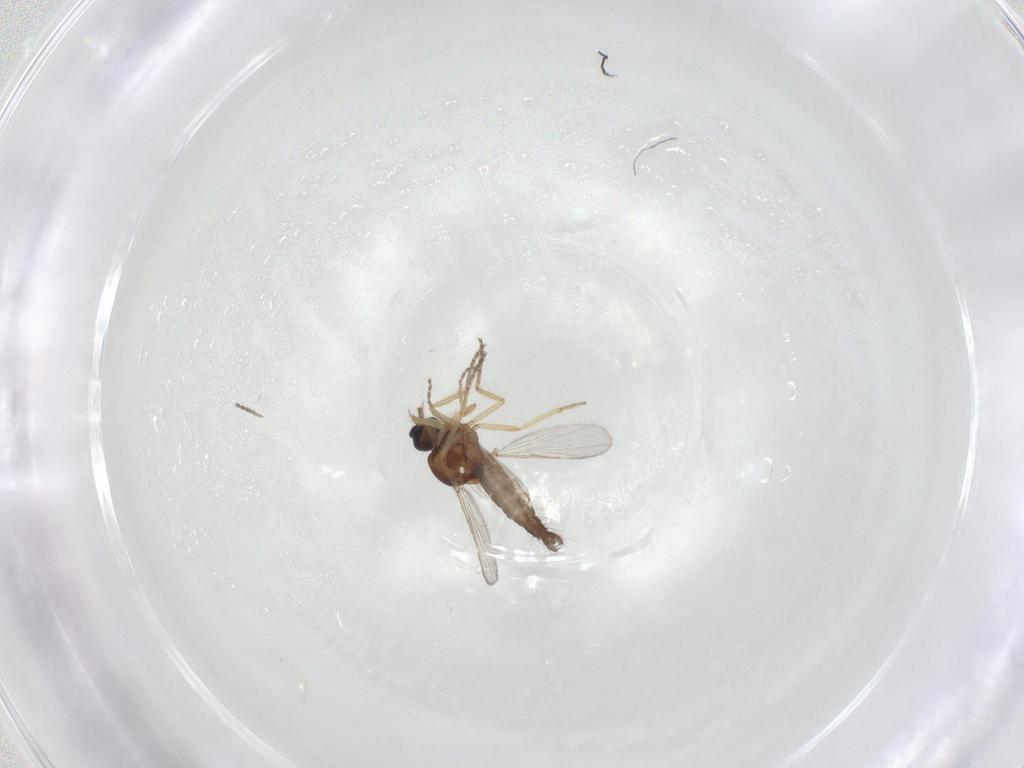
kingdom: Animalia
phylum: Arthropoda
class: Insecta
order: Diptera
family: Ceratopogonidae
